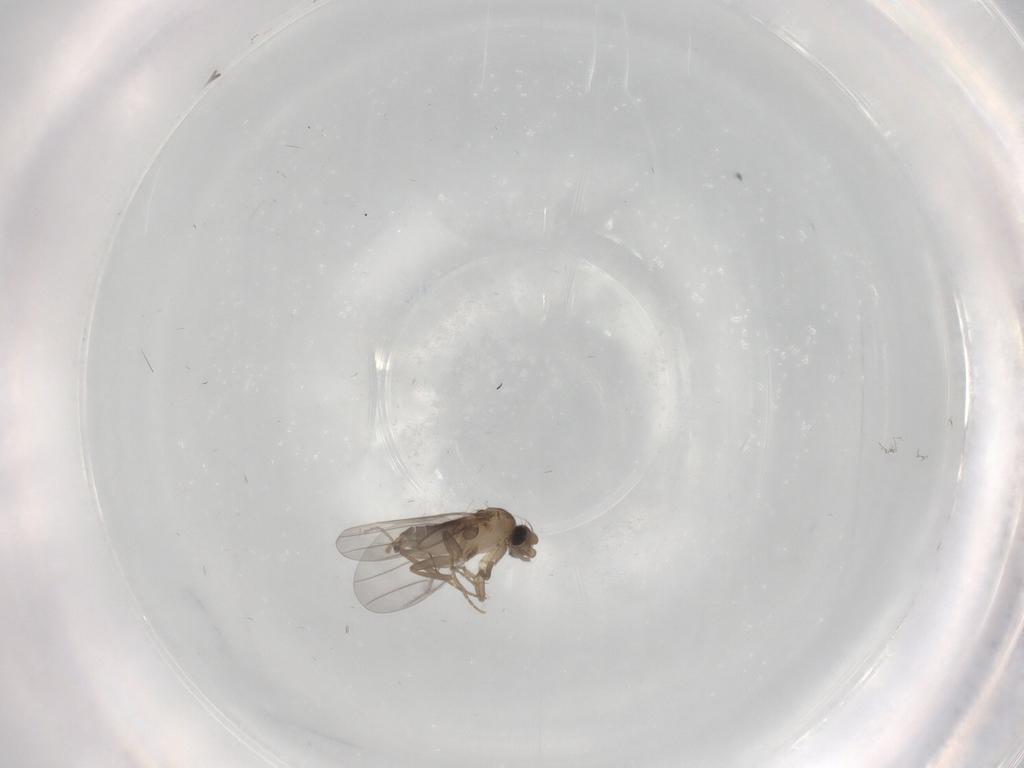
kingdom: Animalia
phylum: Arthropoda
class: Insecta
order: Diptera
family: Psychodidae
